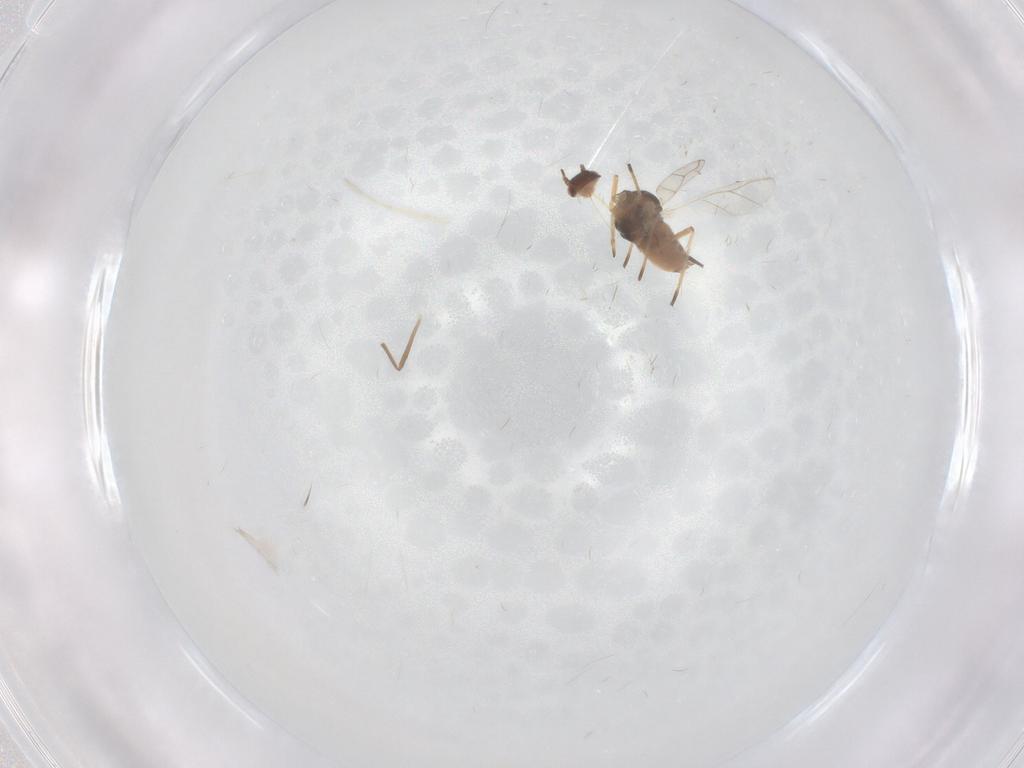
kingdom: Animalia
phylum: Arthropoda
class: Insecta
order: Hemiptera
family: Aphididae
